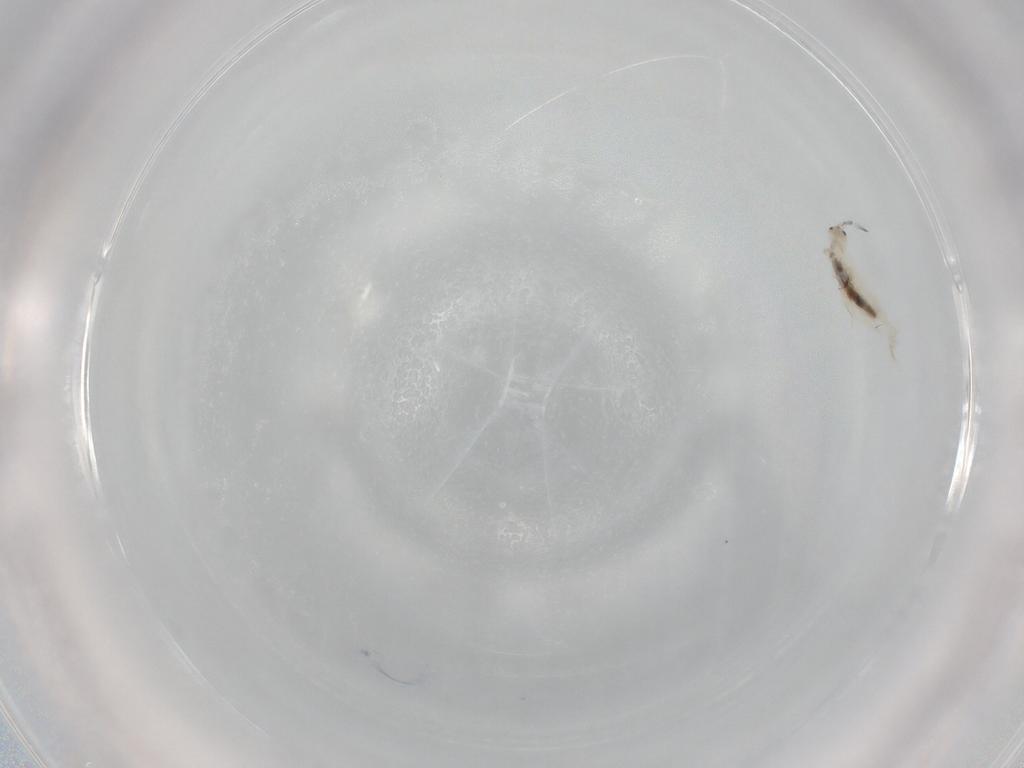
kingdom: Animalia
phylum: Arthropoda
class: Collembola
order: Entomobryomorpha
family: Entomobryidae
